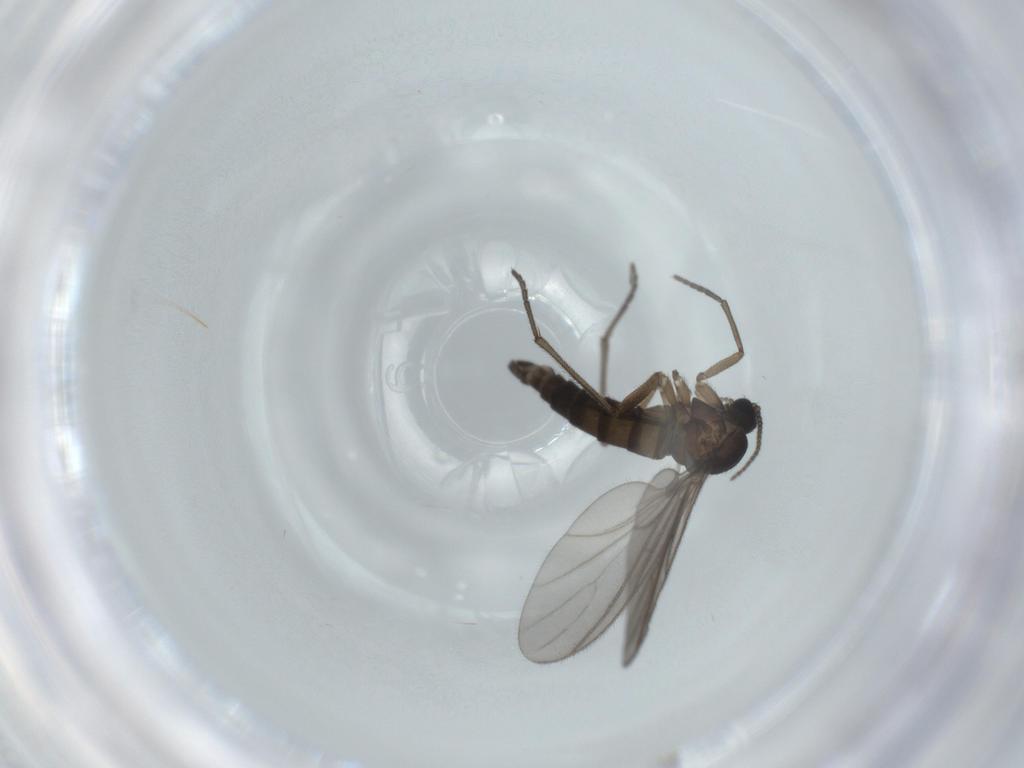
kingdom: Animalia
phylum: Arthropoda
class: Insecta
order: Diptera
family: Sciaridae
